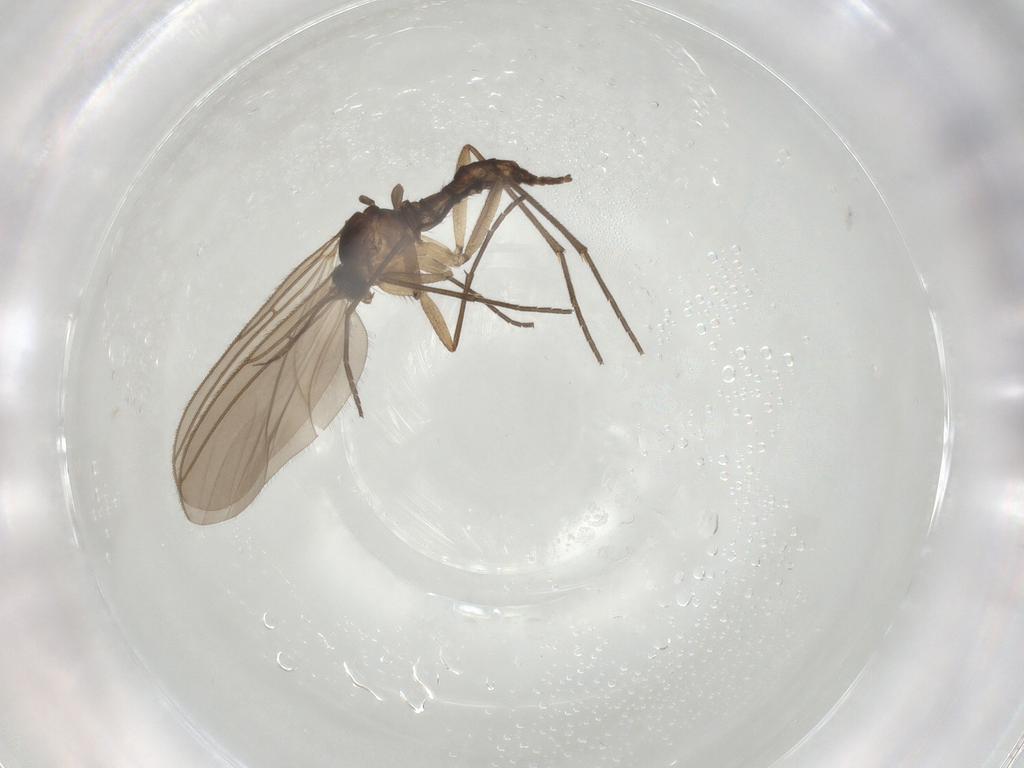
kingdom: Animalia
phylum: Arthropoda
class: Insecta
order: Diptera
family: Sciaridae
